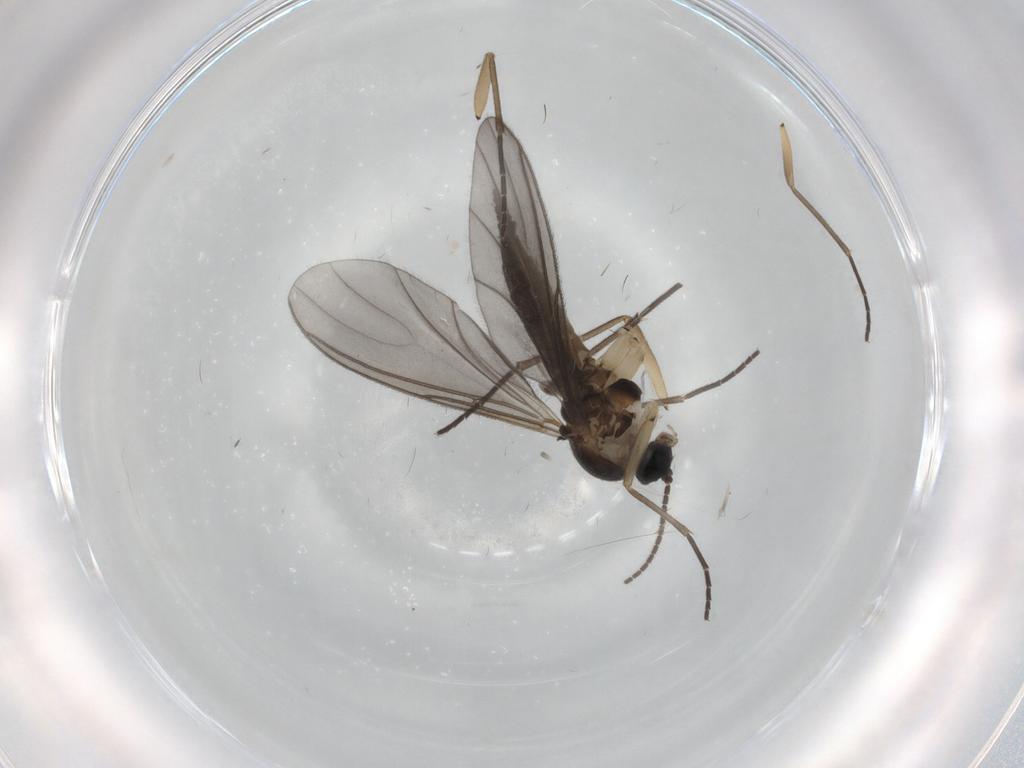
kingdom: Animalia
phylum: Arthropoda
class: Insecta
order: Diptera
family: Sciaridae
